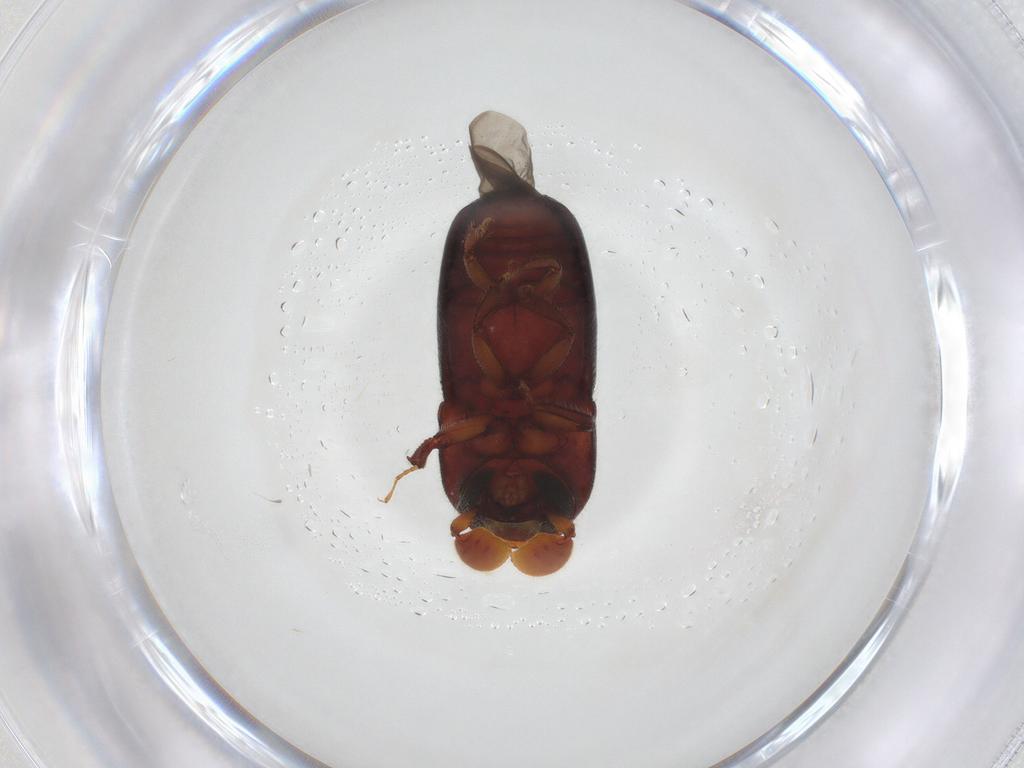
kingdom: Animalia
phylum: Arthropoda
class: Insecta
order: Coleoptera
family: Curculionidae
